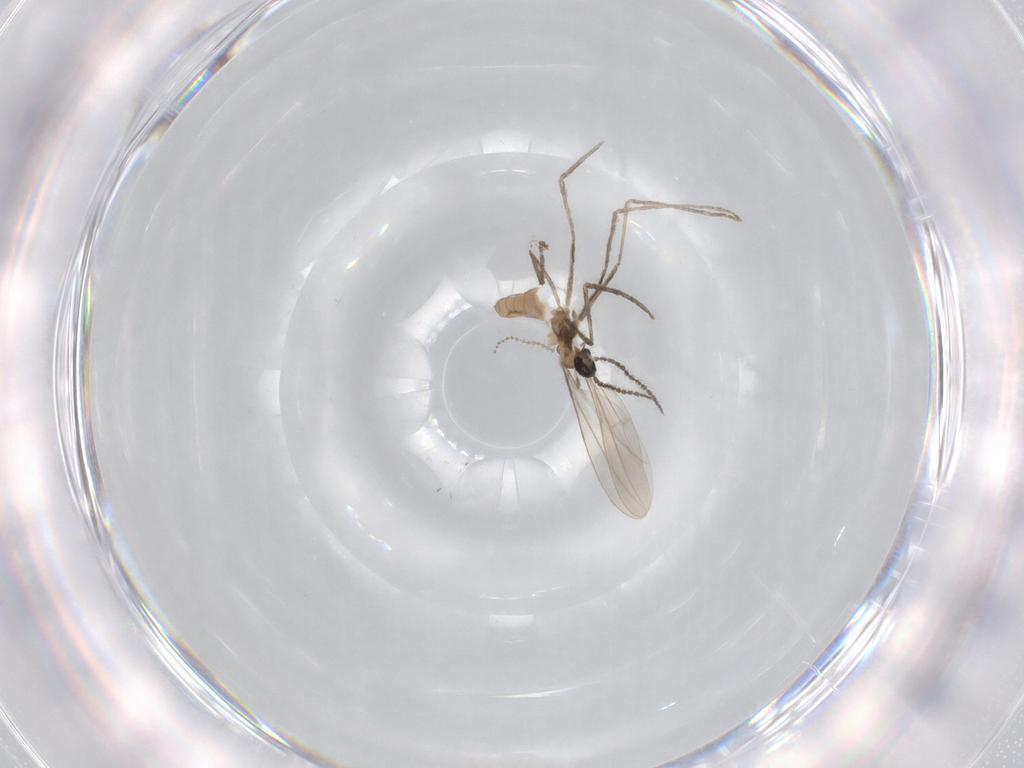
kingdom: Animalia
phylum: Arthropoda
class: Insecta
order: Diptera
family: Cecidomyiidae
